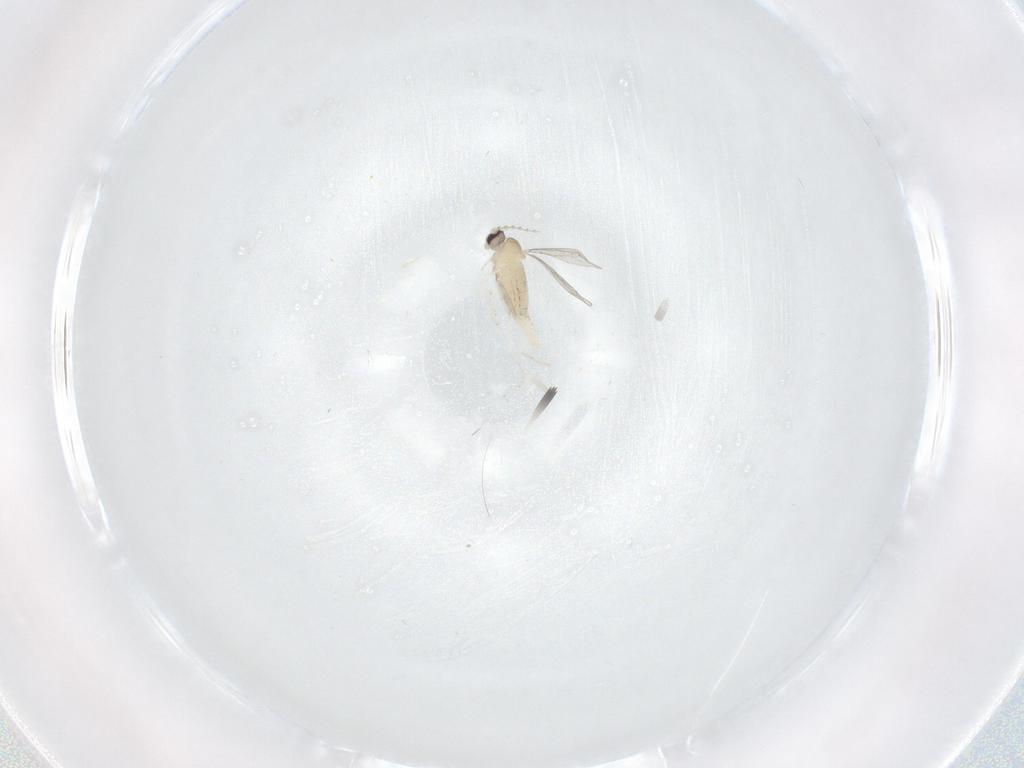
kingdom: Animalia
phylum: Arthropoda
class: Insecta
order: Diptera
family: Cecidomyiidae
